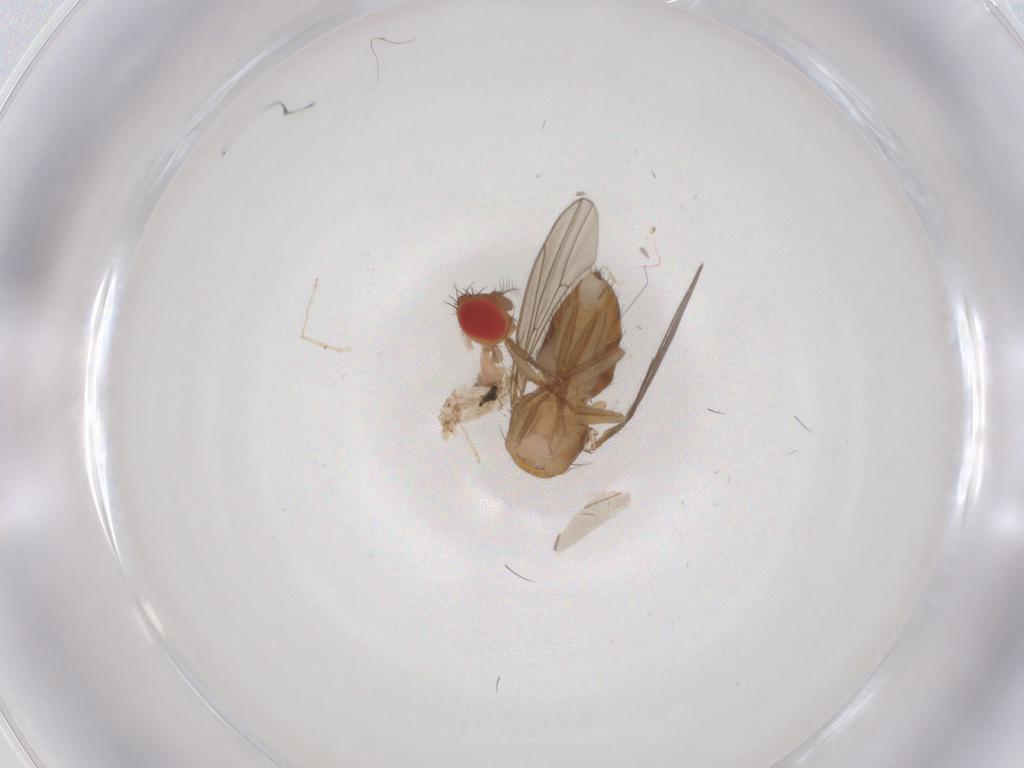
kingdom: Animalia
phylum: Arthropoda
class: Insecta
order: Diptera
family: Drosophilidae
